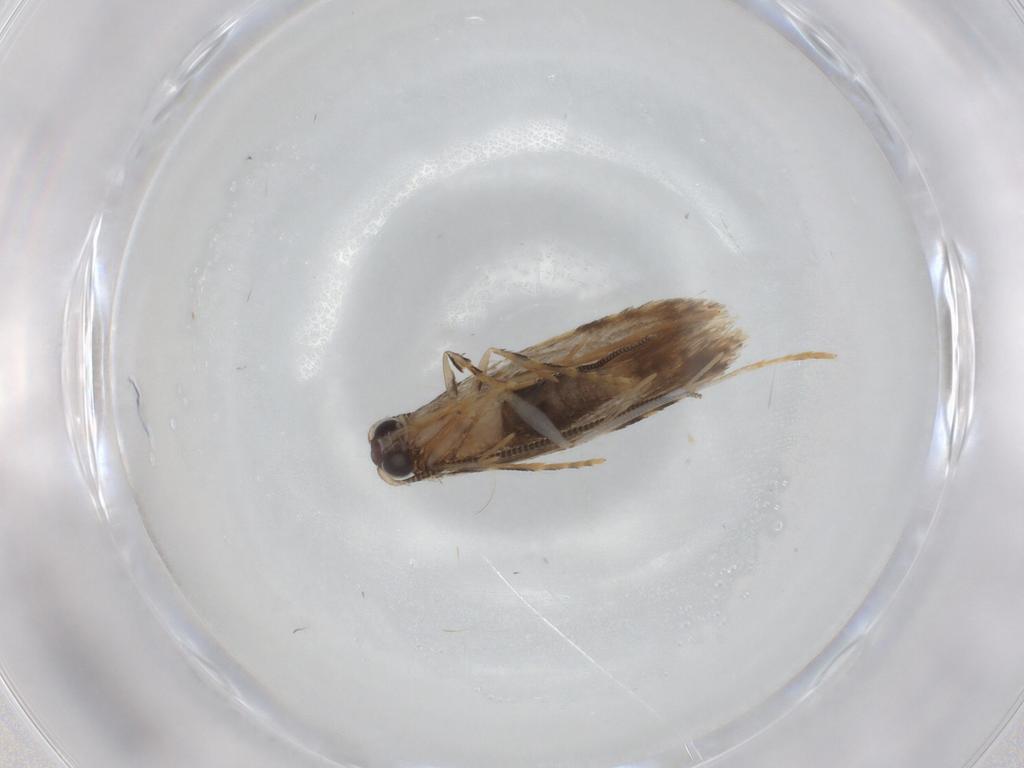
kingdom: Animalia
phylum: Arthropoda
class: Insecta
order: Lepidoptera
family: Tineidae
